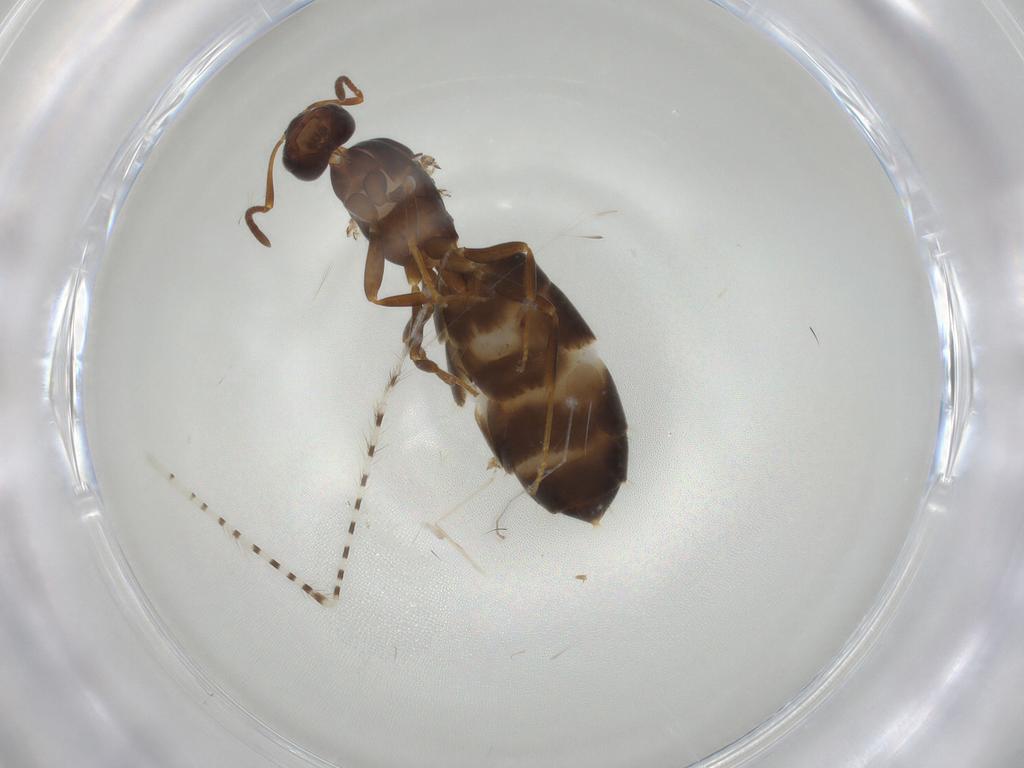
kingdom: Animalia
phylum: Arthropoda
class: Insecta
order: Hymenoptera
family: Formicidae
